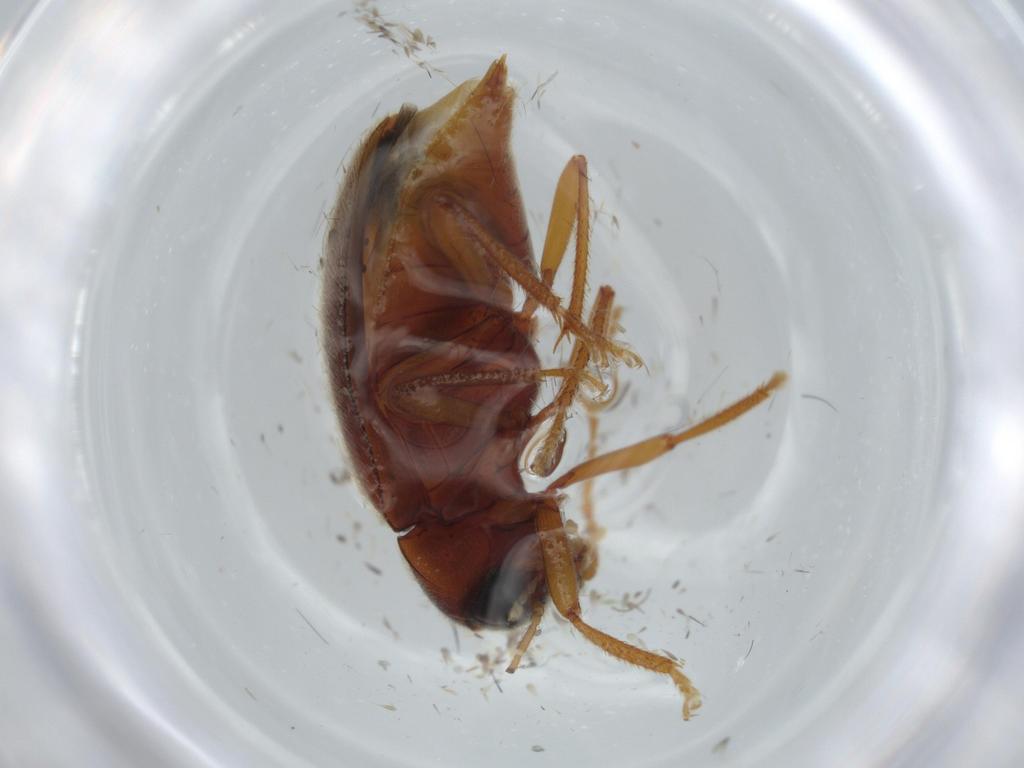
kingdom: Animalia
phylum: Arthropoda
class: Insecta
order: Coleoptera
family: Ptilodactylidae
